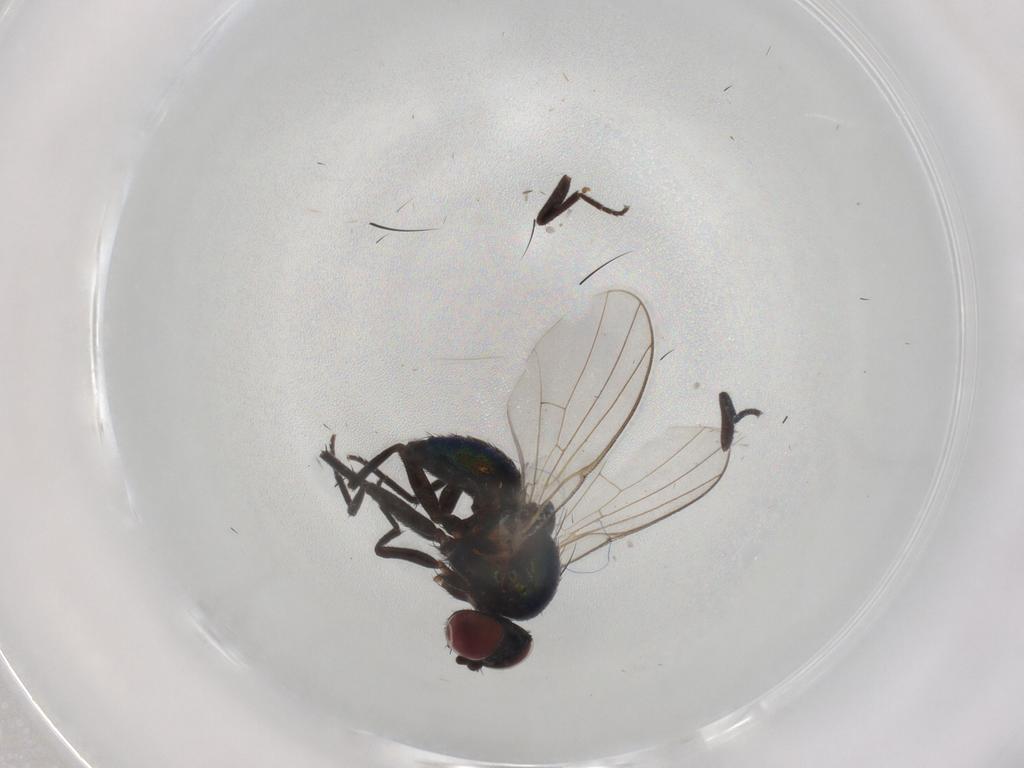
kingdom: Animalia
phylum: Arthropoda
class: Insecta
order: Diptera
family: Agromyzidae
